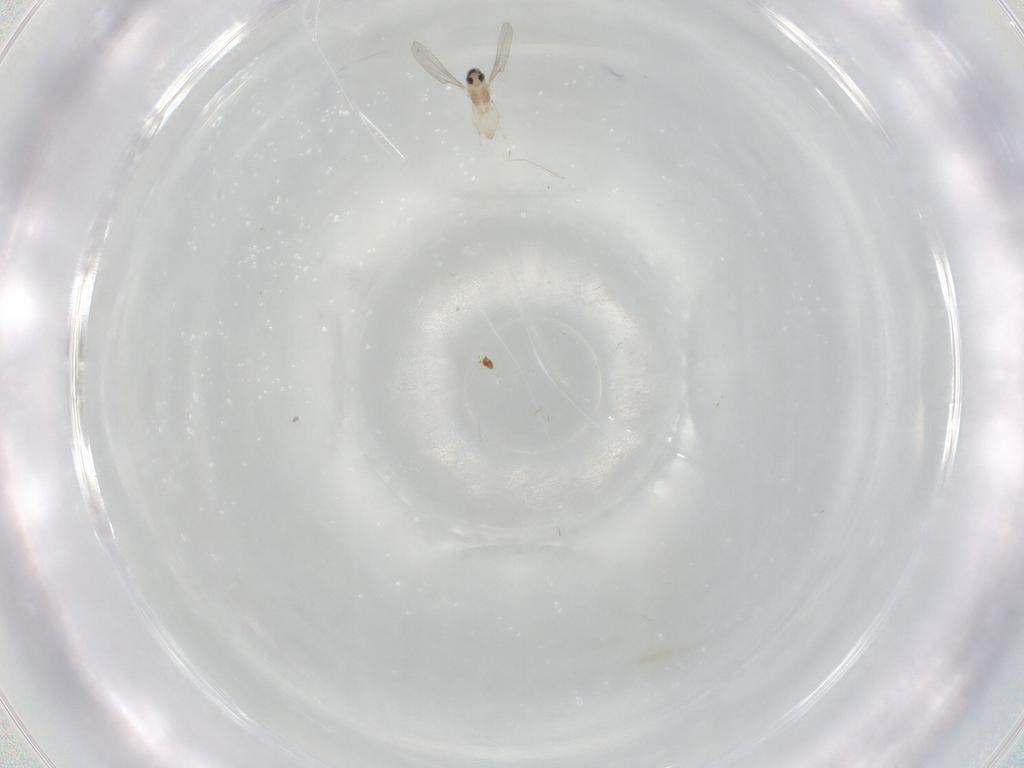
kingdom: Animalia
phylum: Arthropoda
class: Insecta
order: Diptera
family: Cecidomyiidae
